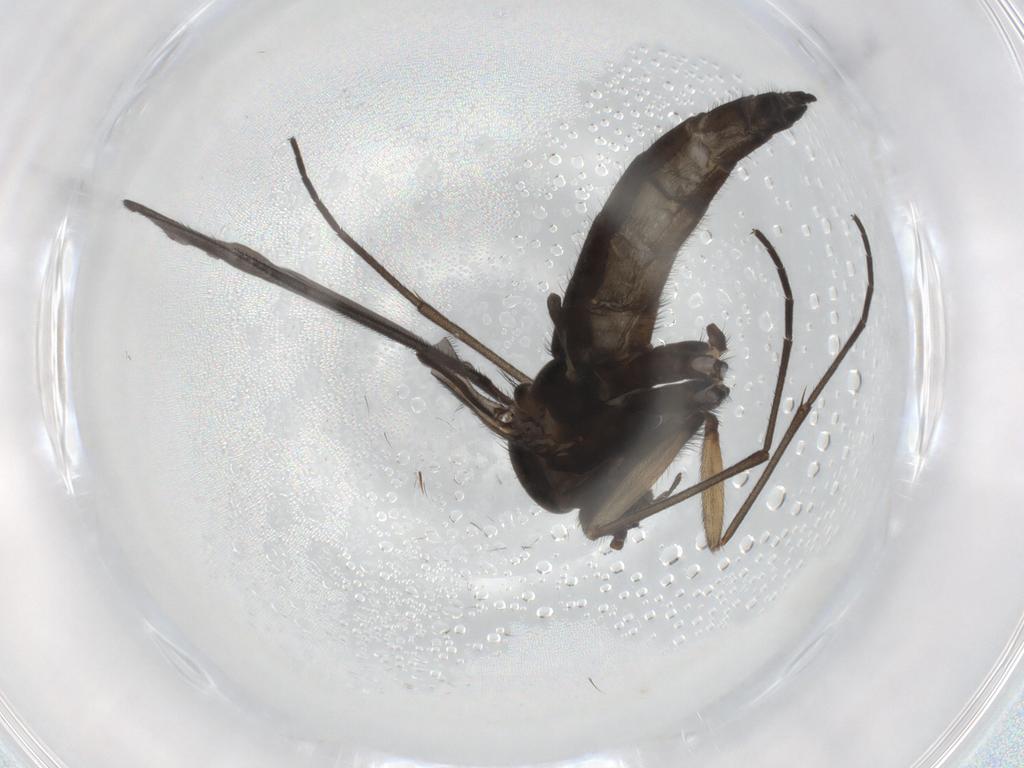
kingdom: Animalia
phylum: Arthropoda
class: Insecta
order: Diptera
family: Sciaridae
